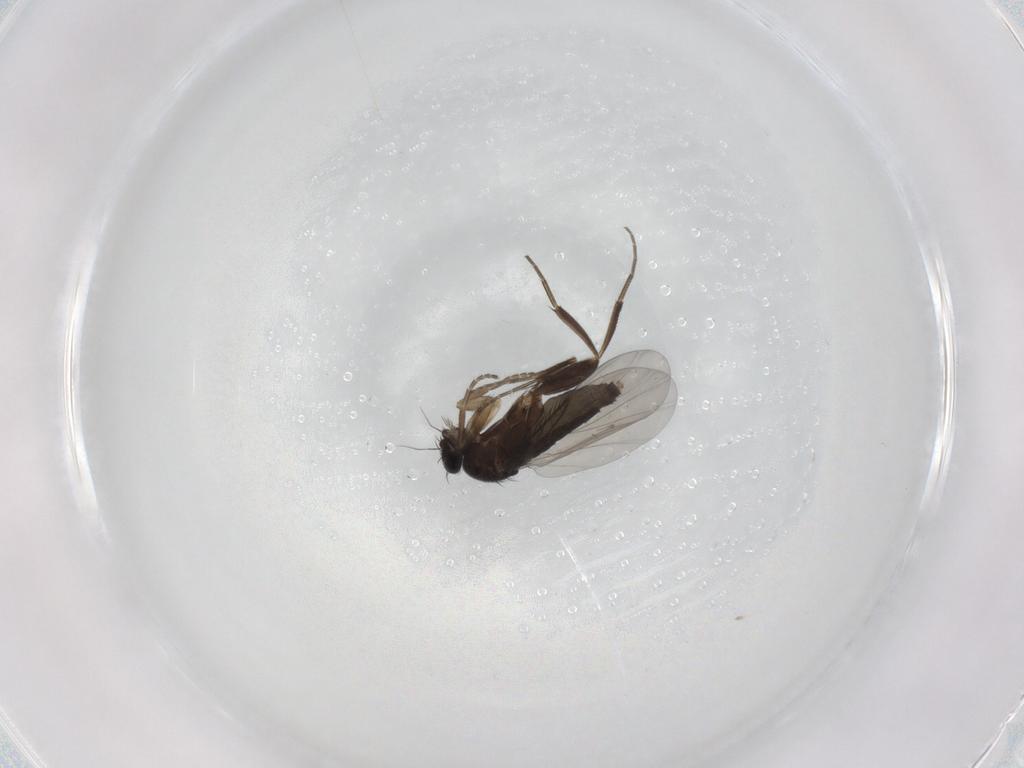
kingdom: Animalia
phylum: Arthropoda
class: Insecta
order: Diptera
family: Phoridae
